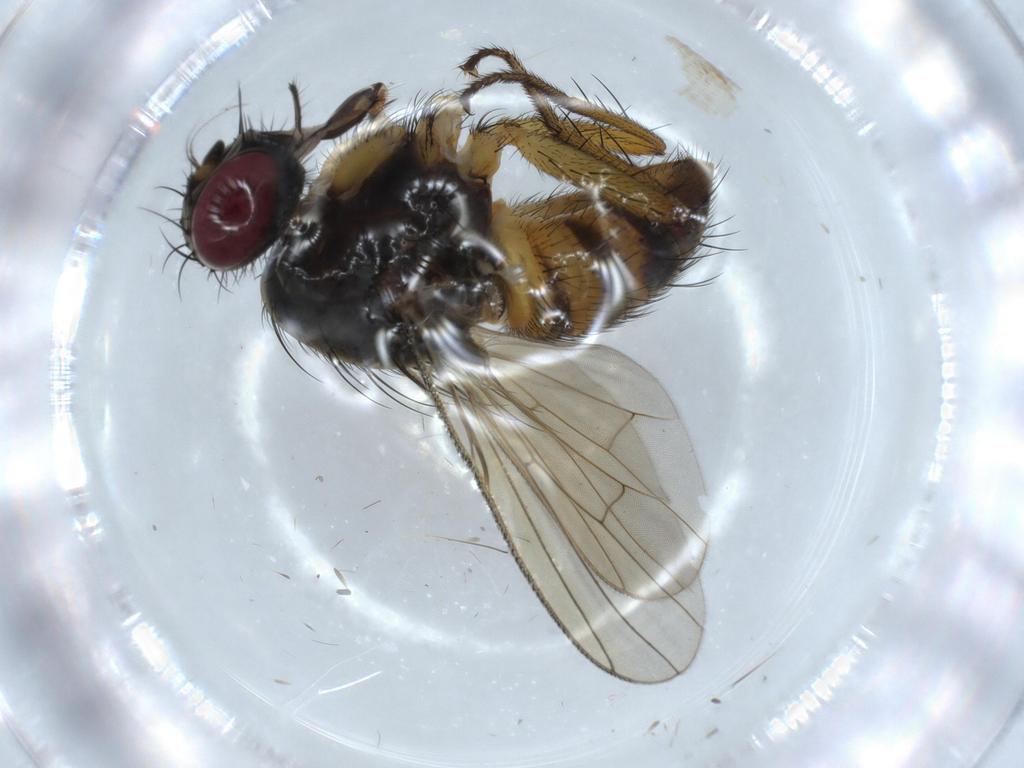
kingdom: Animalia
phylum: Arthropoda
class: Insecta
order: Diptera
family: Muscidae
